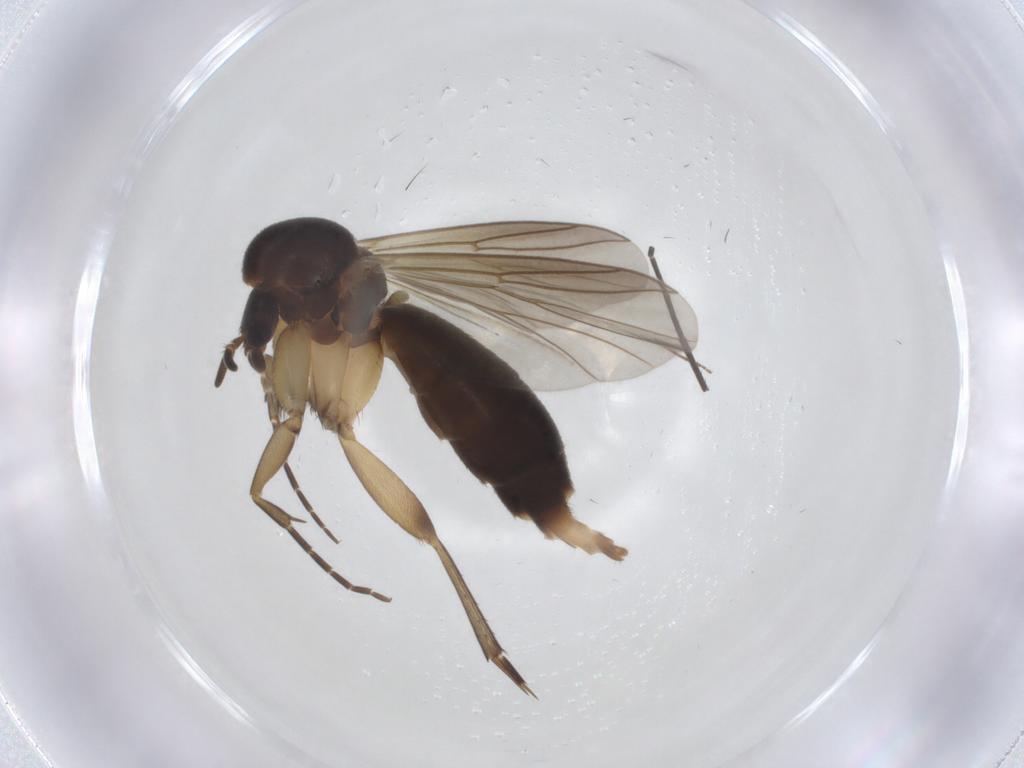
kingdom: Animalia
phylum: Arthropoda
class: Insecta
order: Diptera
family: Mycetophilidae
